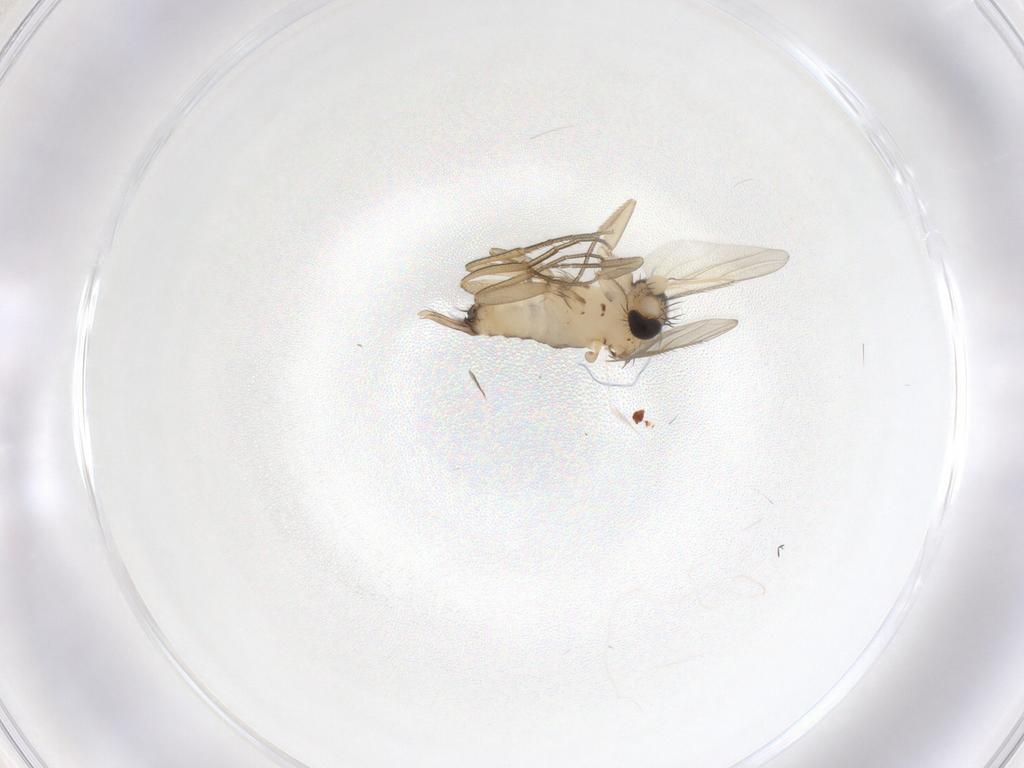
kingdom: Animalia
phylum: Arthropoda
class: Insecta
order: Diptera
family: Phoridae
